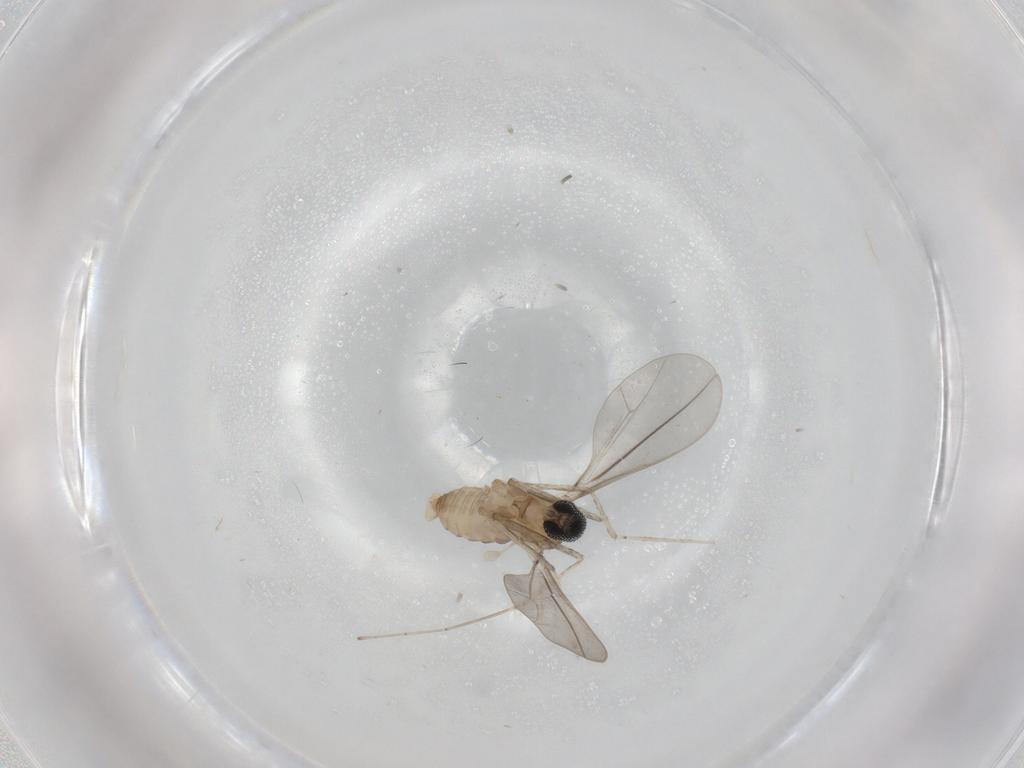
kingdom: Animalia
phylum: Arthropoda
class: Insecta
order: Diptera
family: Cecidomyiidae
